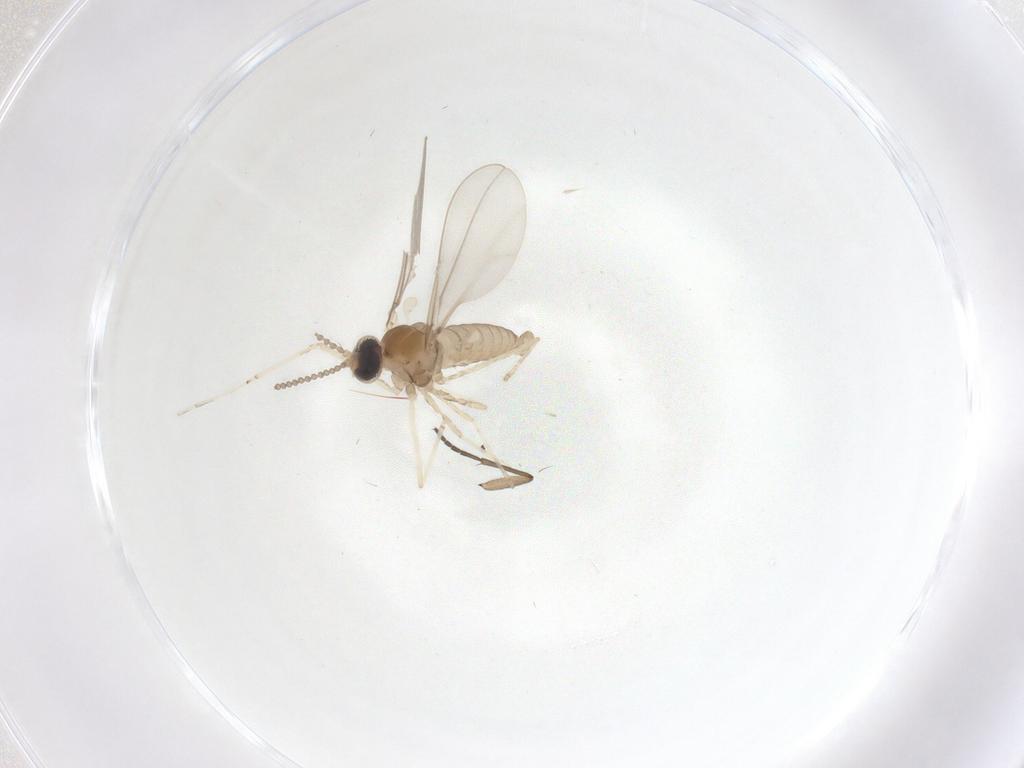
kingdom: Animalia
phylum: Arthropoda
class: Insecta
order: Diptera
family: Cecidomyiidae
